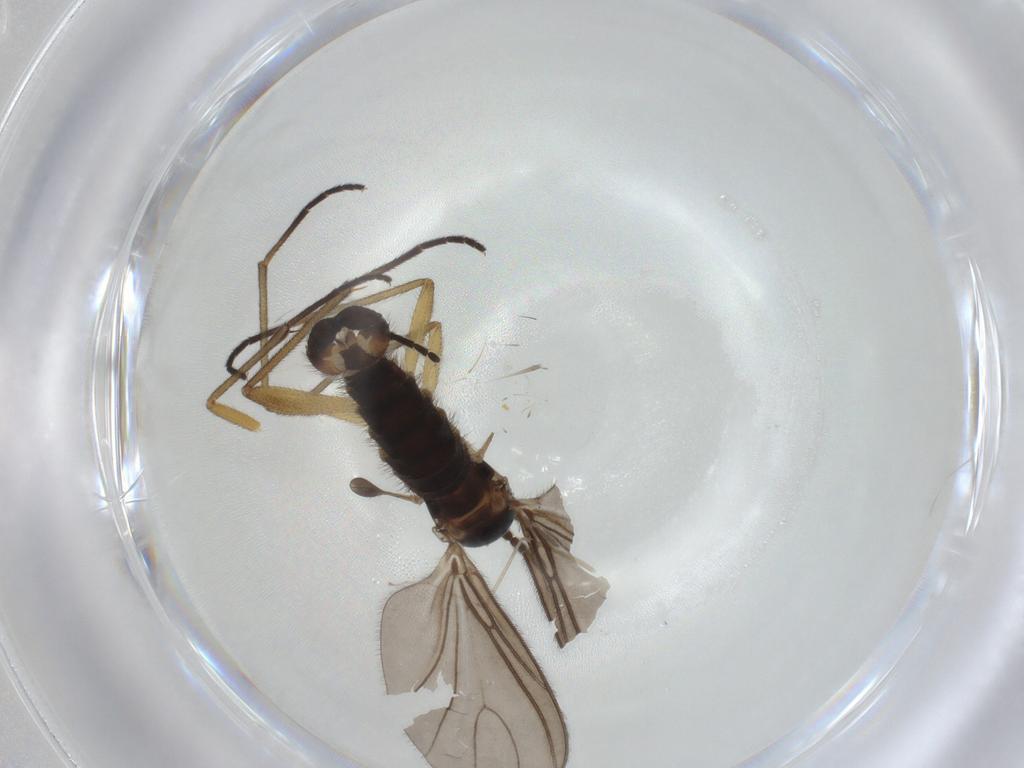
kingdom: Animalia
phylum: Arthropoda
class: Insecta
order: Diptera
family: Sciaridae
